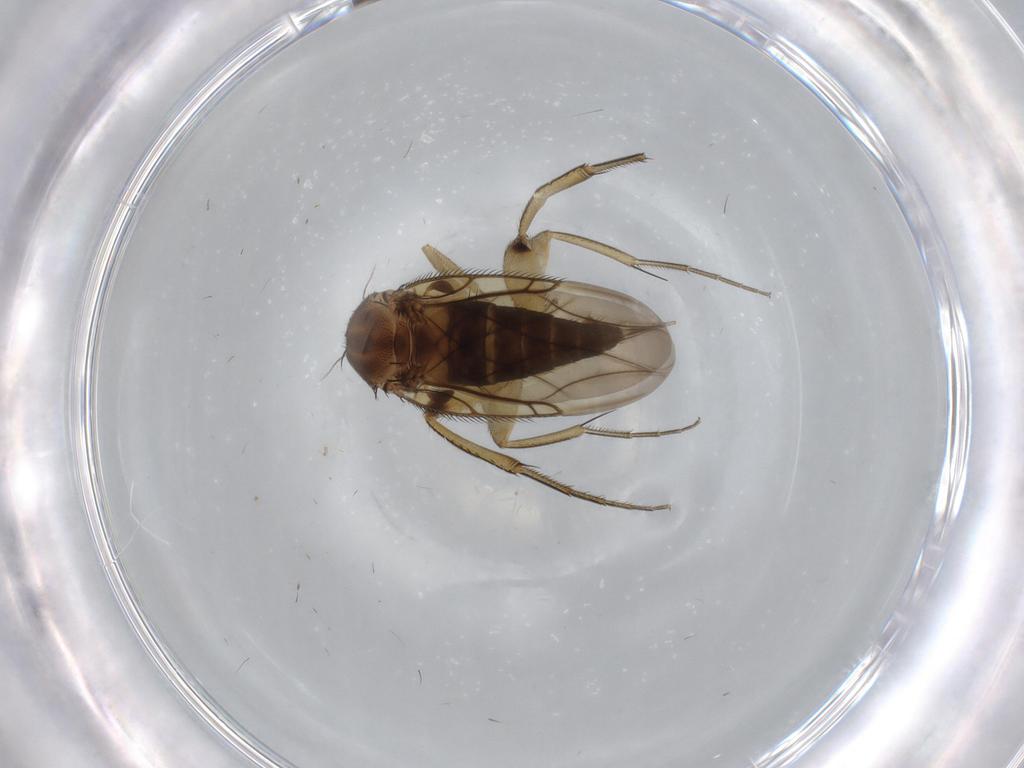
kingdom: Animalia
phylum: Arthropoda
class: Insecta
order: Diptera
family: Phoridae
